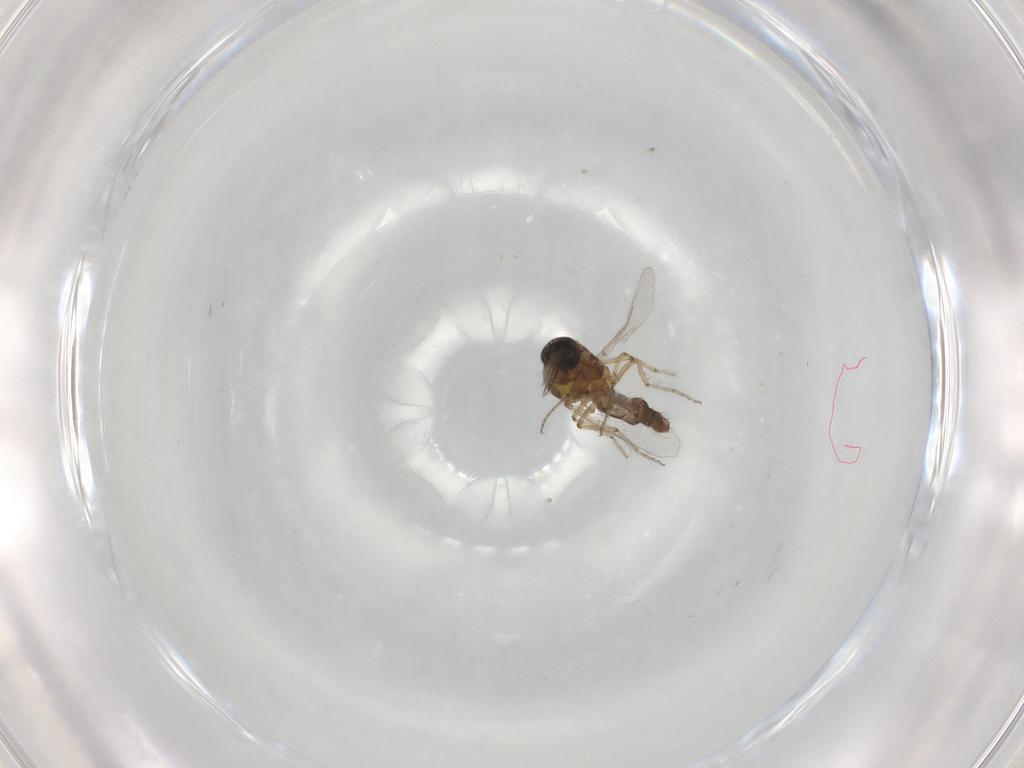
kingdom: Animalia
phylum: Arthropoda
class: Insecta
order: Diptera
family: Ceratopogonidae
